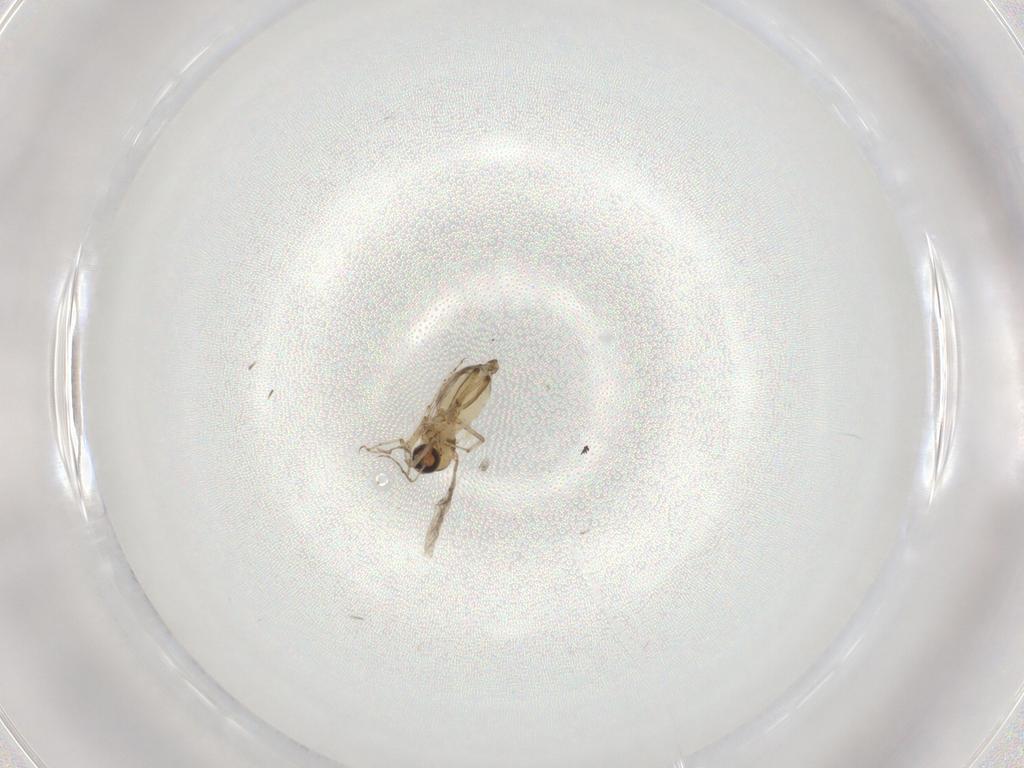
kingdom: Animalia
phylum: Arthropoda
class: Insecta
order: Diptera
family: Ceratopogonidae
